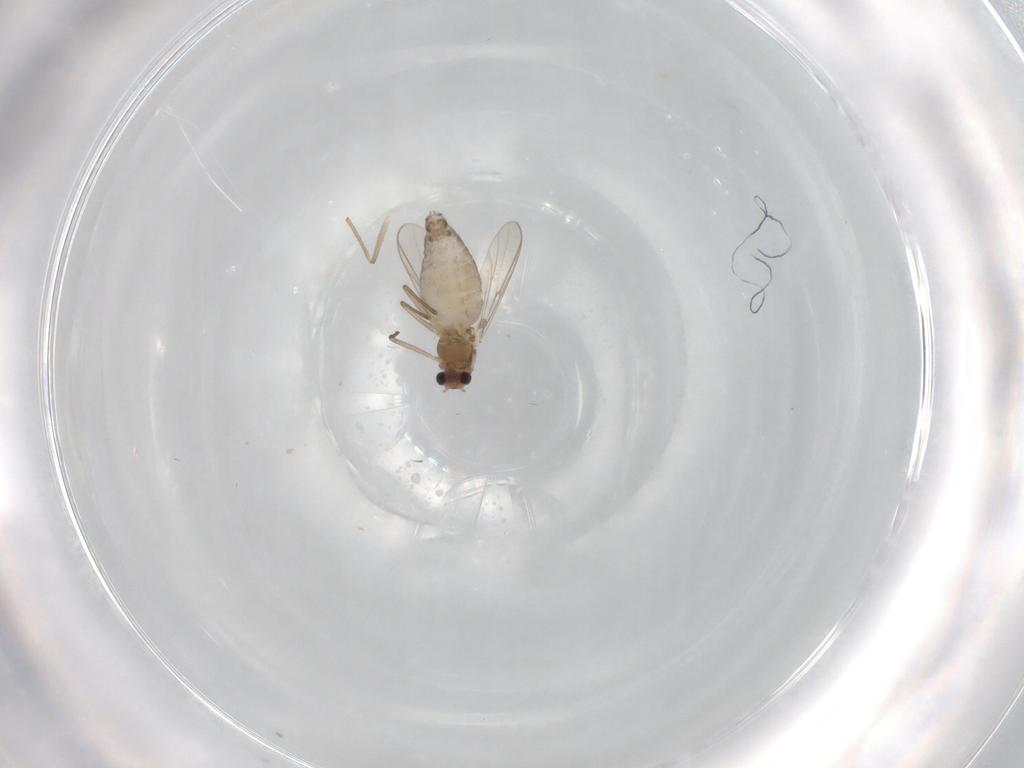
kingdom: Animalia
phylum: Arthropoda
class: Insecta
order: Diptera
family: Chironomidae
